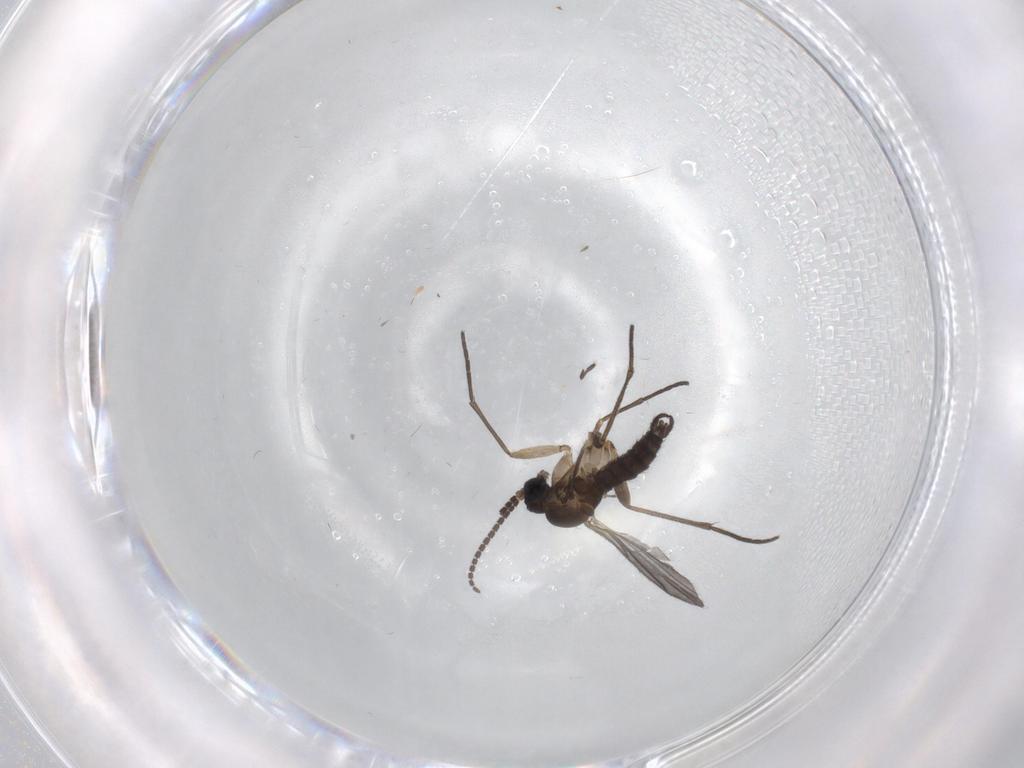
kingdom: Animalia
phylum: Arthropoda
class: Insecta
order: Diptera
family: Sciaridae
